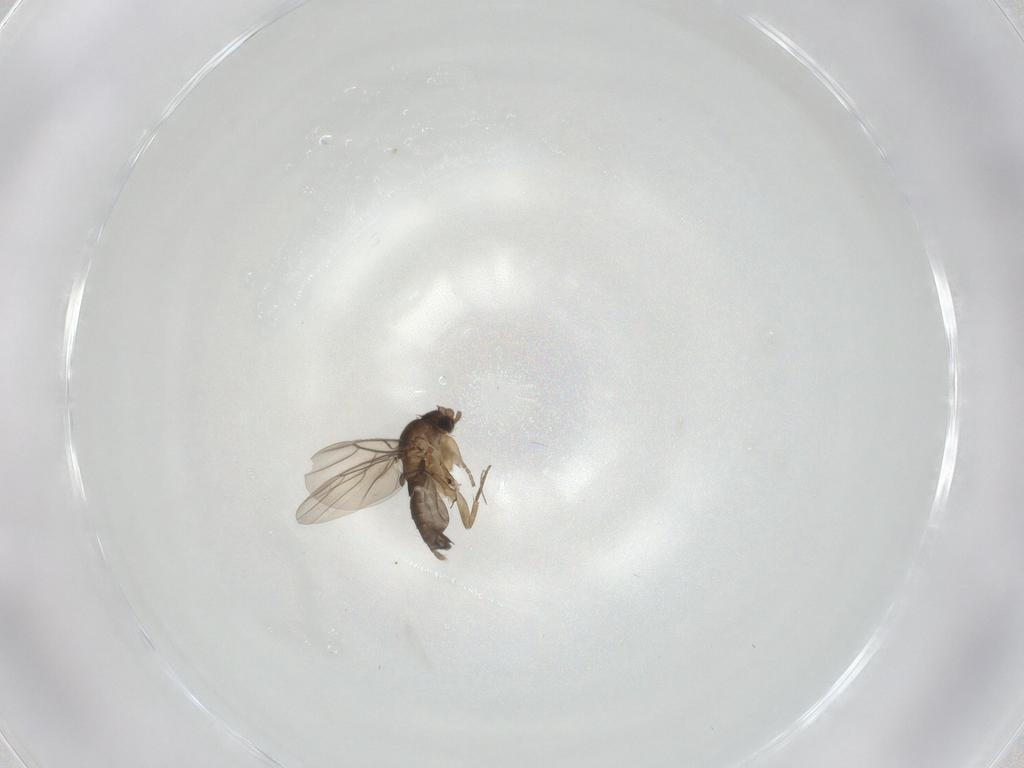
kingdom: Animalia
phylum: Arthropoda
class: Insecta
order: Diptera
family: Phoridae
